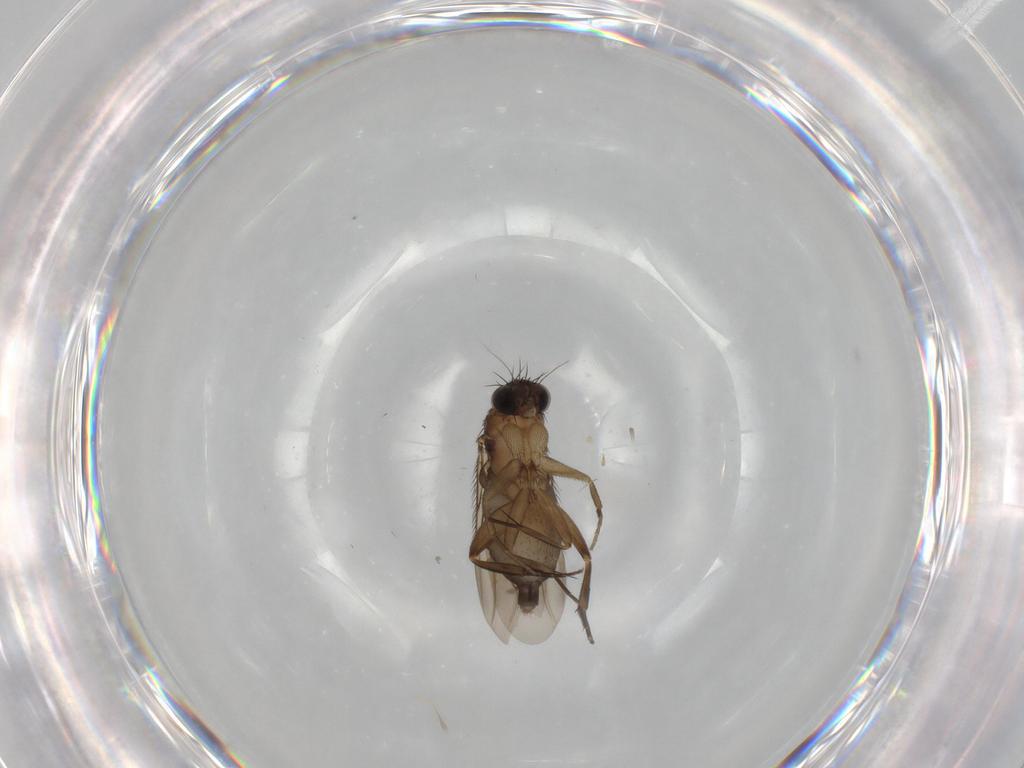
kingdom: Animalia
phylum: Arthropoda
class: Insecta
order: Diptera
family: Phoridae
